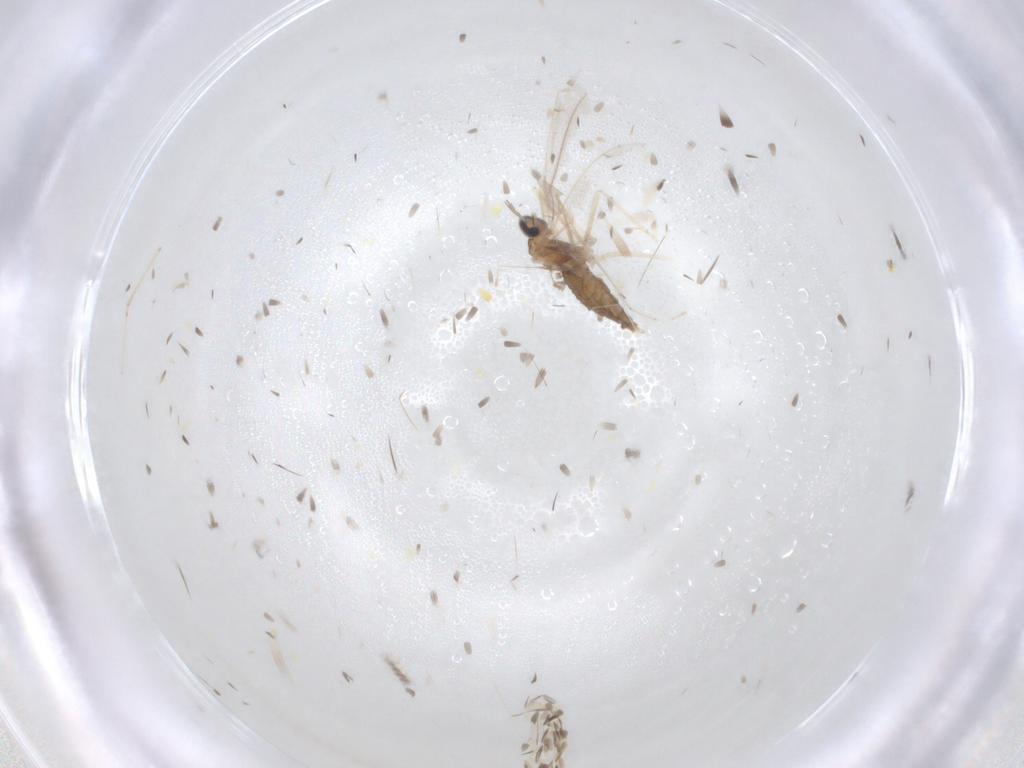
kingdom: Animalia
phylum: Arthropoda
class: Insecta
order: Diptera
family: Cecidomyiidae
